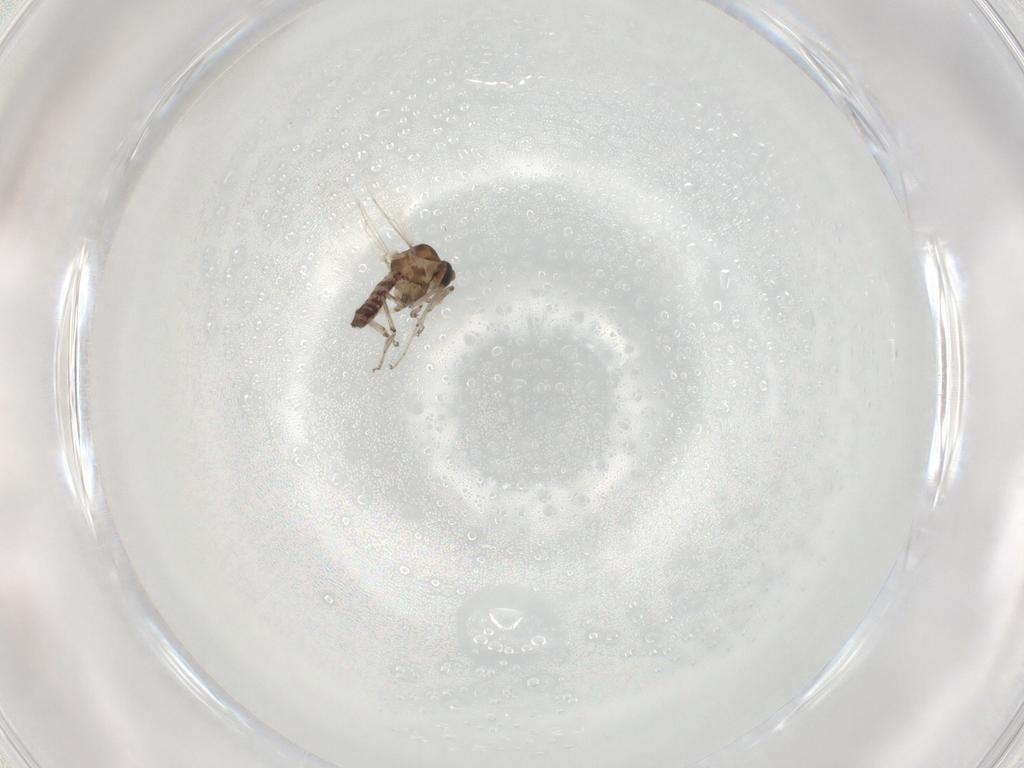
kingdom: Animalia
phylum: Arthropoda
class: Insecta
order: Diptera
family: Ceratopogonidae
